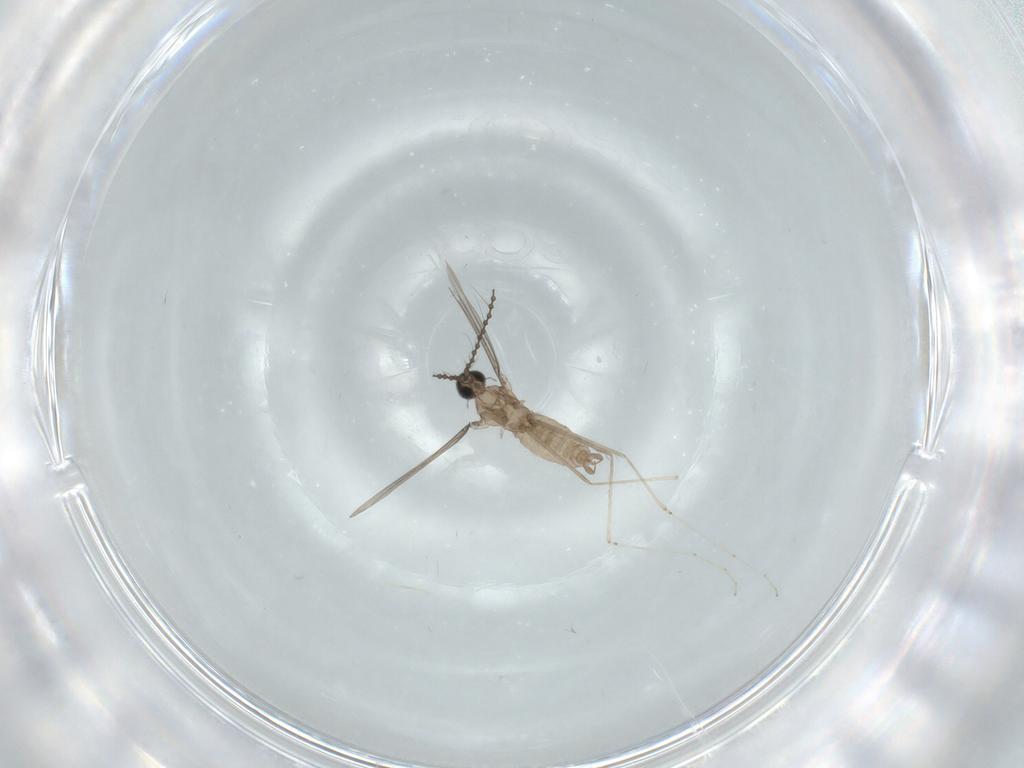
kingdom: Animalia
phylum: Arthropoda
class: Insecta
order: Diptera
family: Cecidomyiidae
